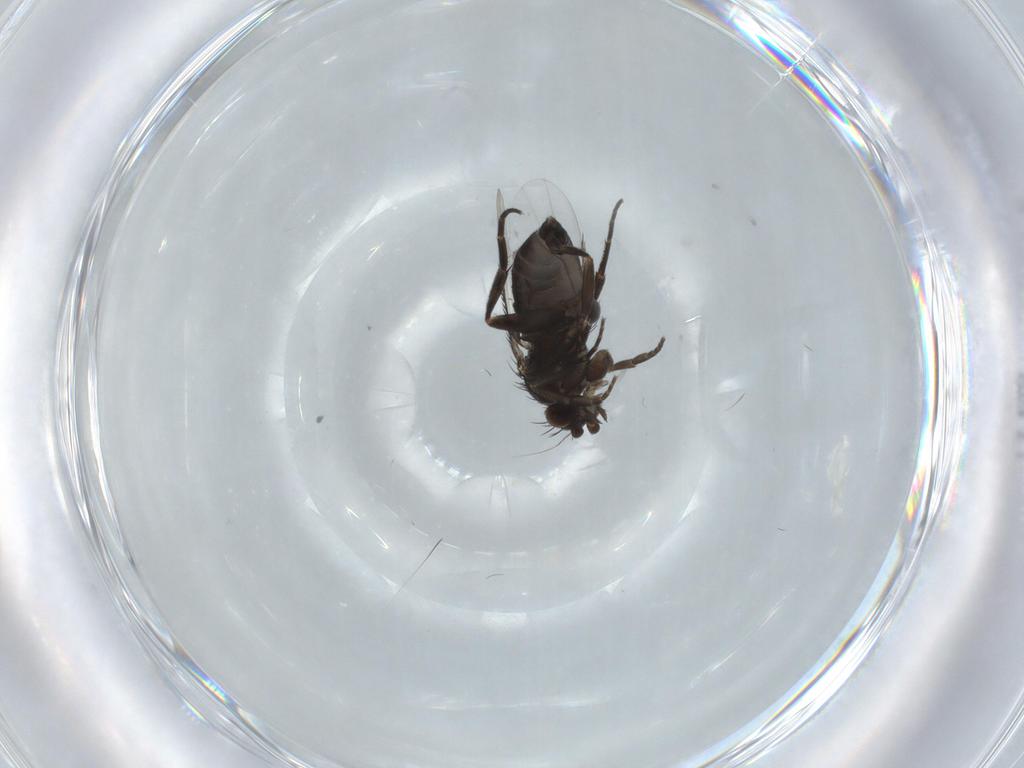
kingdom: Animalia
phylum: Arthropoda
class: Insecta
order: Diptera
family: Phoridae
